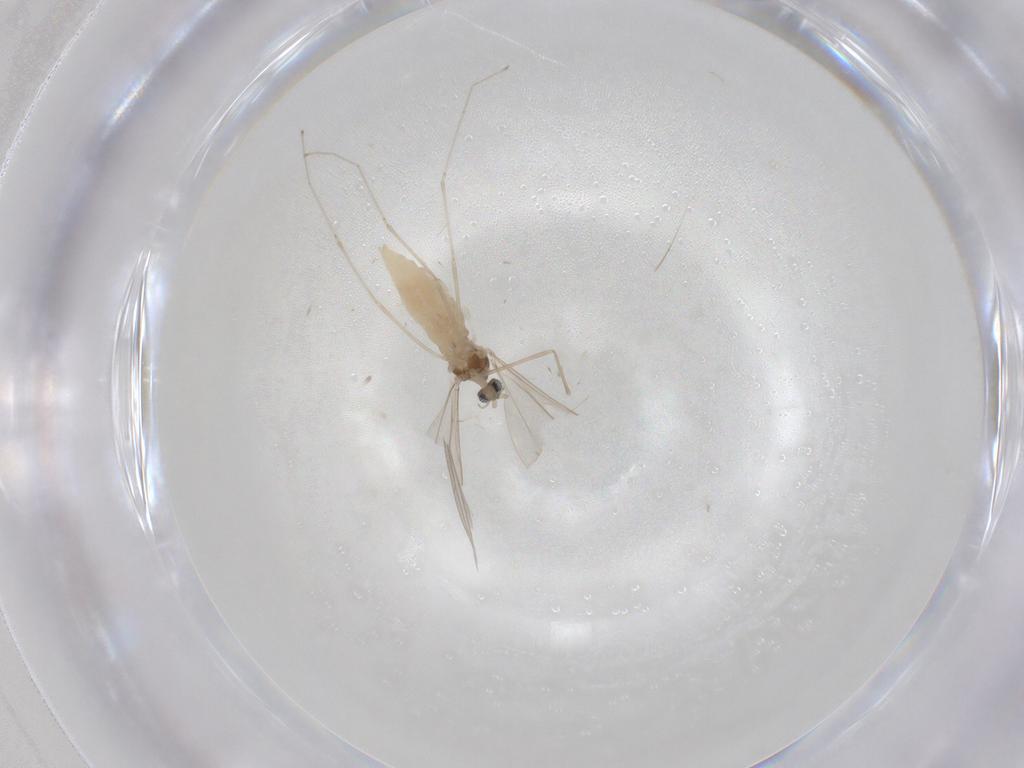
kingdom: Animalia
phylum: Arthropoda
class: Insecta
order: Diptera
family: Cecidomyiidae
